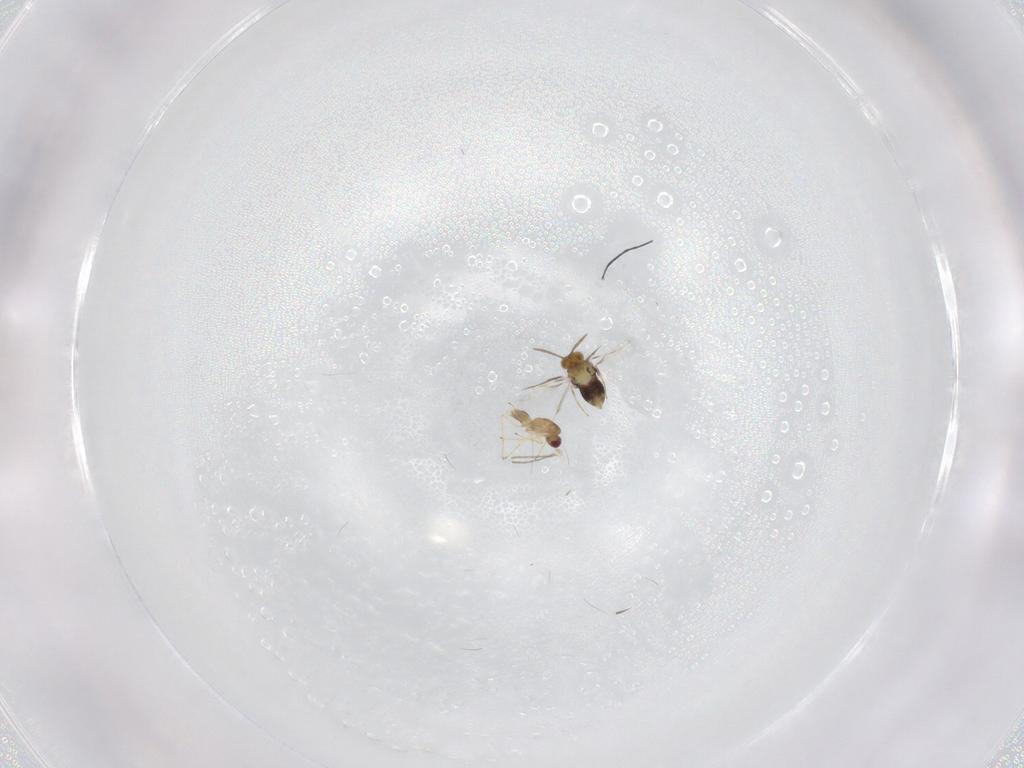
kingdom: Animalia
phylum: Arthropoda
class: Insecta
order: Hymenoptera
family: Aphelinidae
